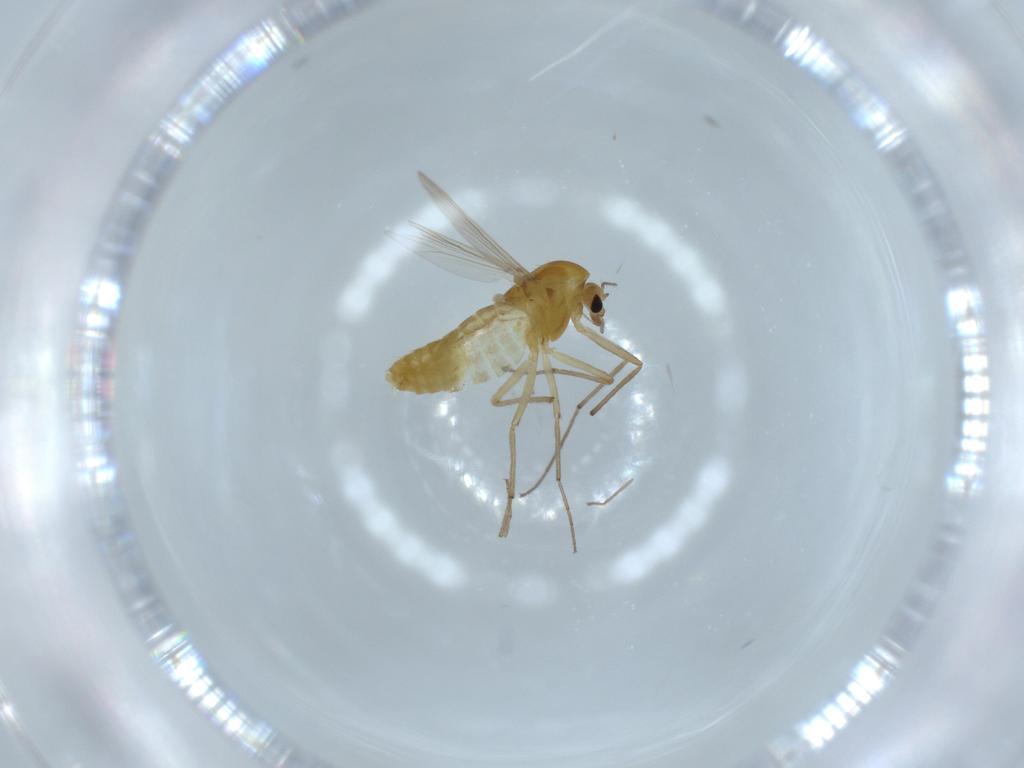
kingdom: Animalia
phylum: Arthropoda
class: Insecta
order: Diptera
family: Chironomidae
